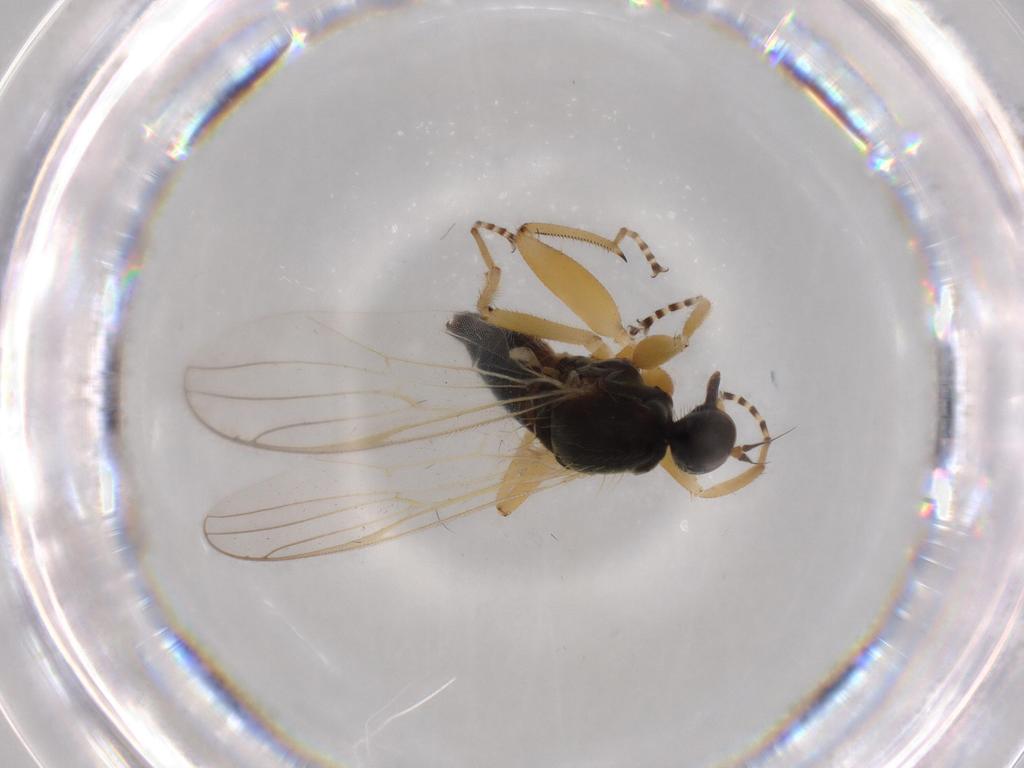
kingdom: Animalia
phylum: Arthropoda
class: Insecta
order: Diptera
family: Hybotidae
